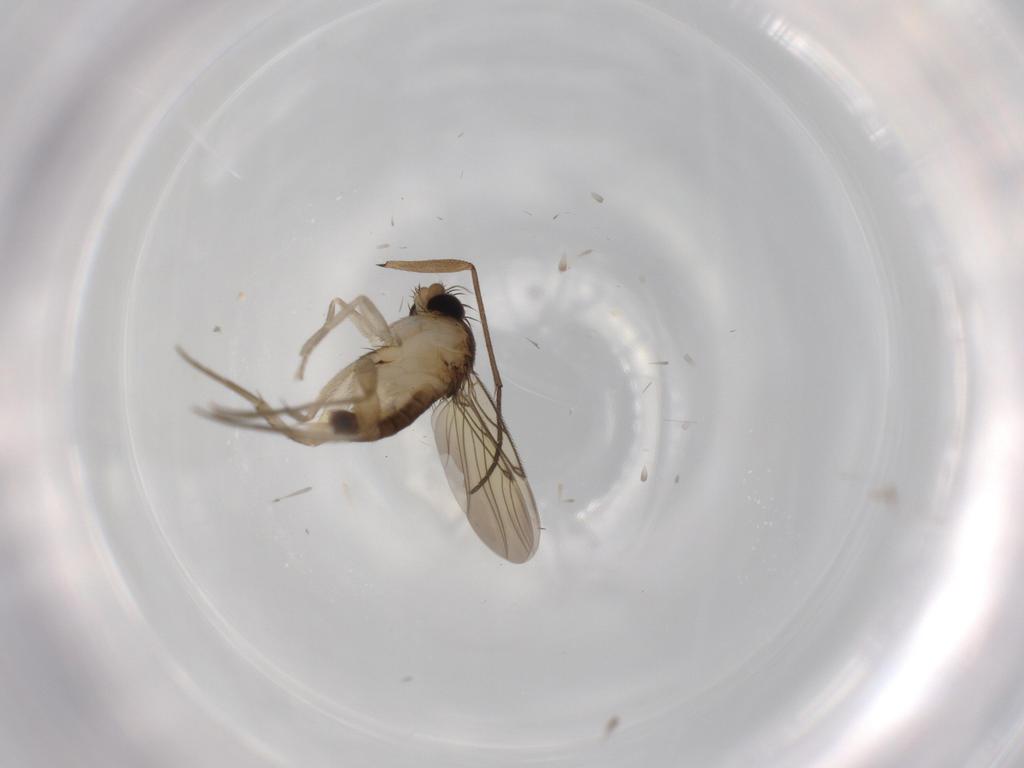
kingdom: Animalia
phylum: Arthropoda
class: Insecta
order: Diptera
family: Sciaridae
